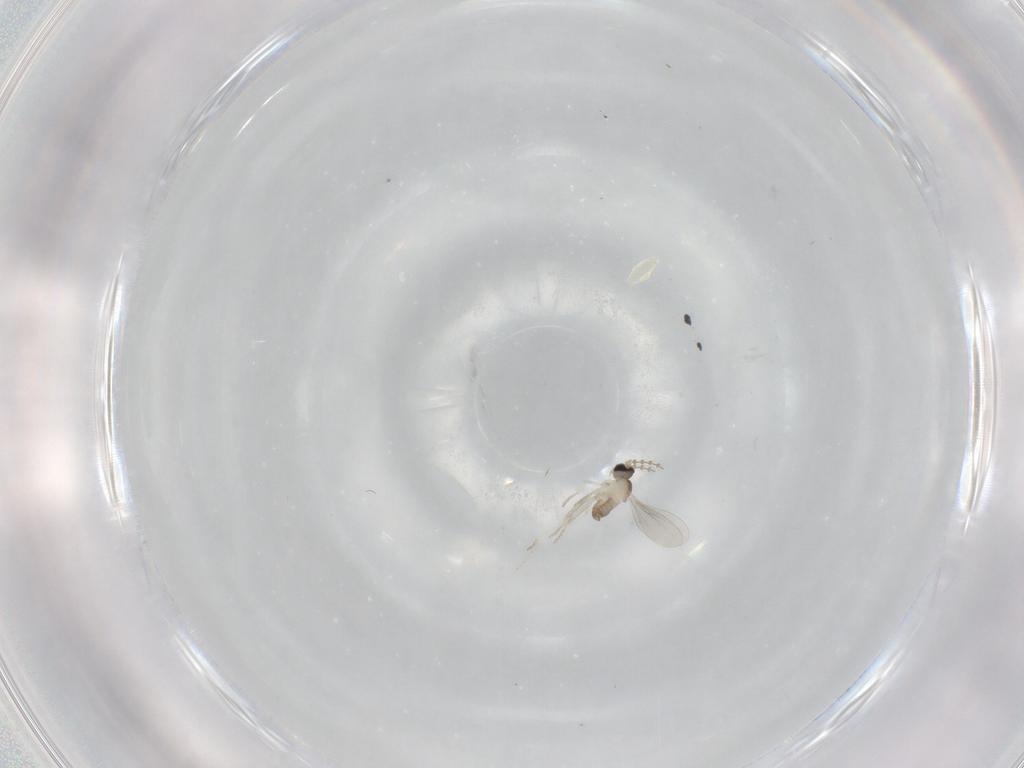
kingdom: Animalia
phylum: Arthropoda
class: Insecta
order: Diptera
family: Cecidomyiidae
